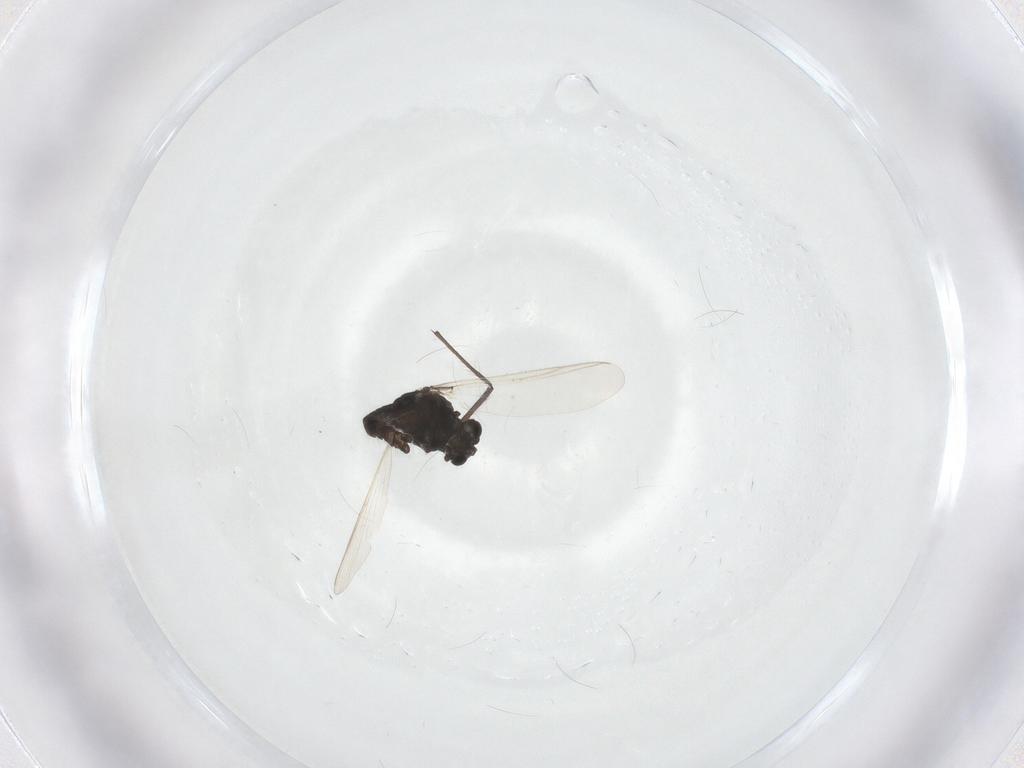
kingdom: Animalia
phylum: Arthropoda
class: Insecta
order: Diptera
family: Chironomidae
